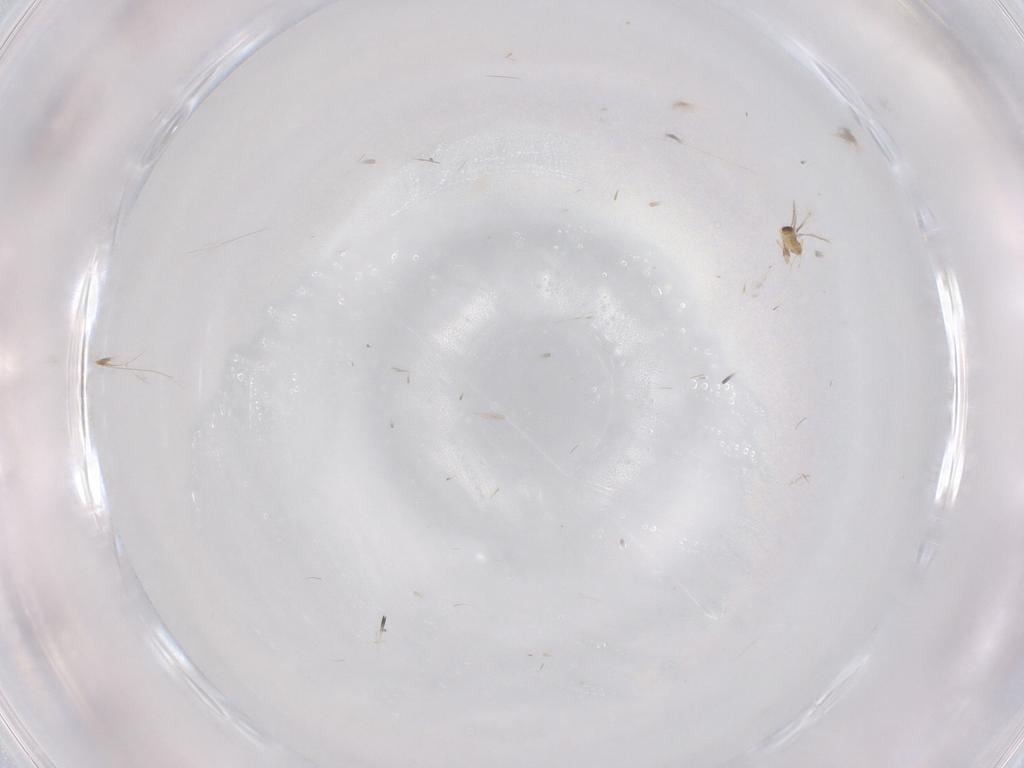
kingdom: Animalia
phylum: Arthropoda
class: Insecta
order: Hymenoptera
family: Mymaridae
